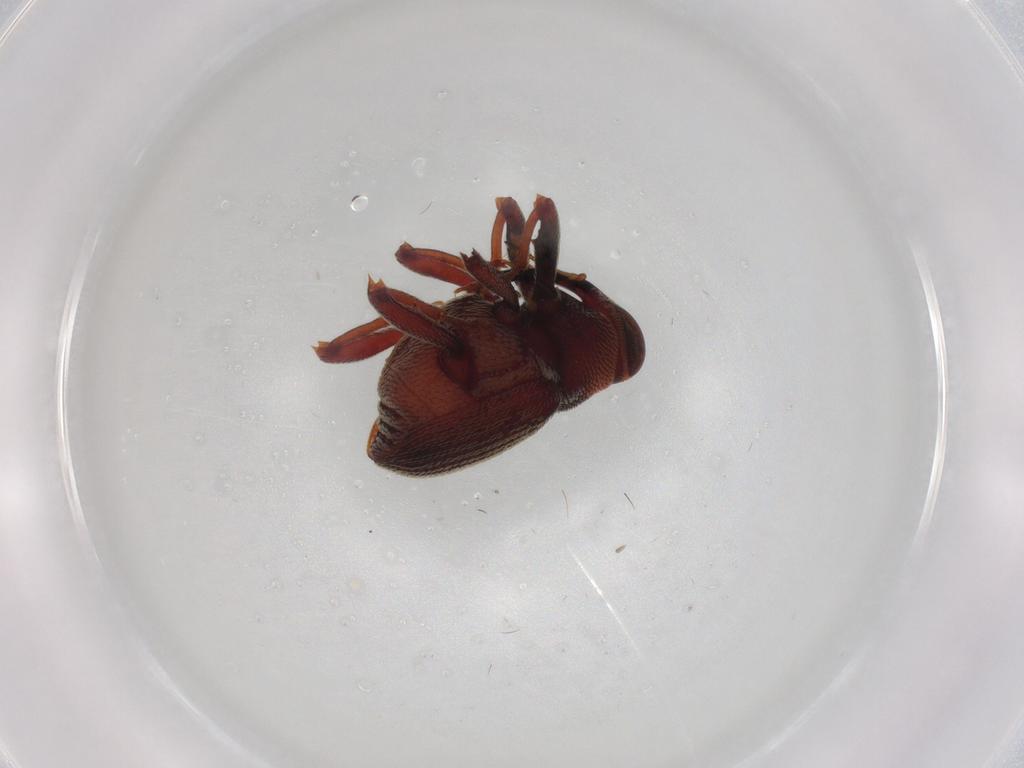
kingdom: Animalia
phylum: Arthropoda
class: Insecta
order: Coleoptera
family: Curculionidae
